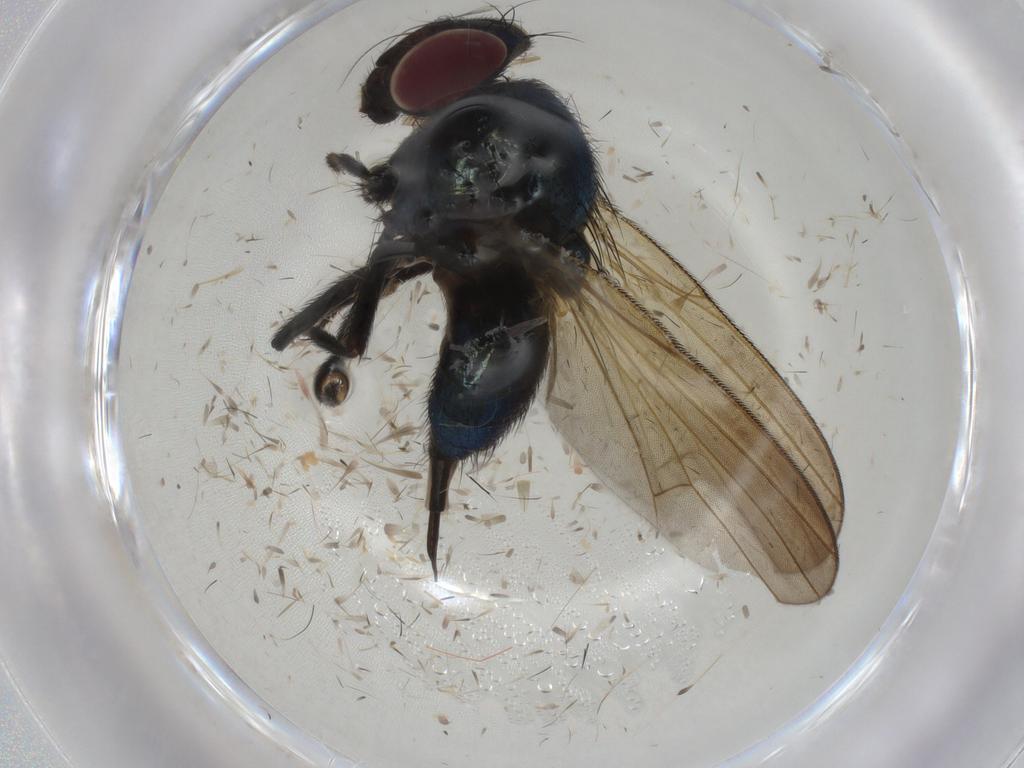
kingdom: Animalia
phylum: Arthropoda
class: Insecta
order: Diptera
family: Lonchaeidae
